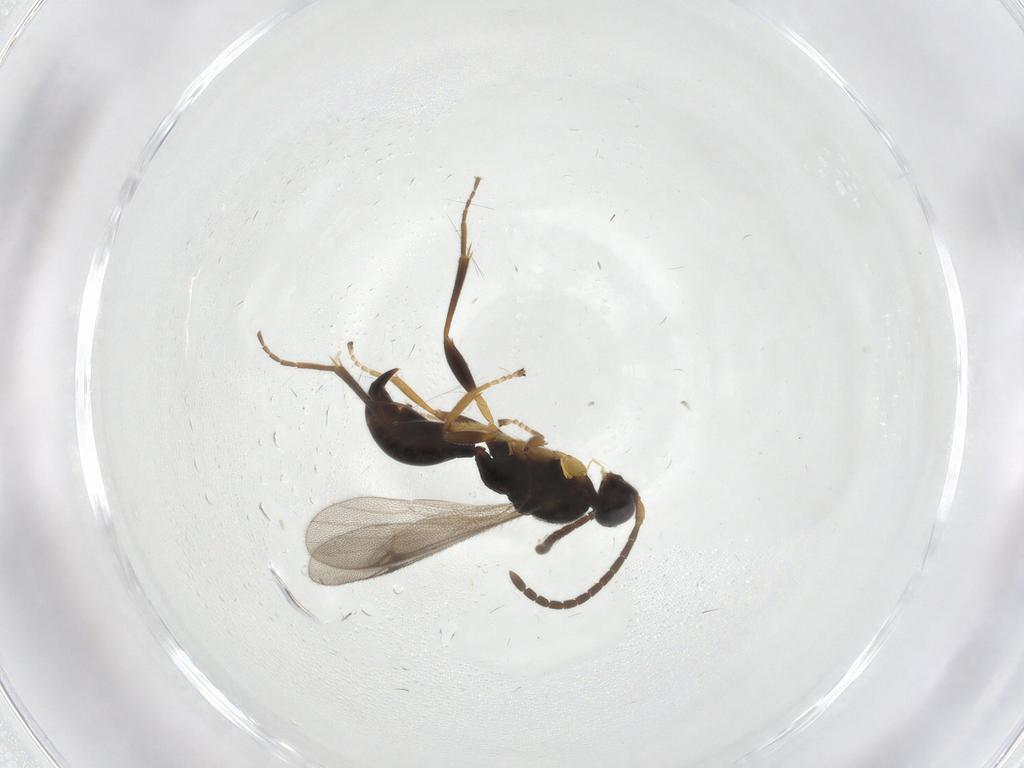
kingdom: Animalia
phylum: Arthropoda
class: Insecta
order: Hymenoptera
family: Proctotrupidae
